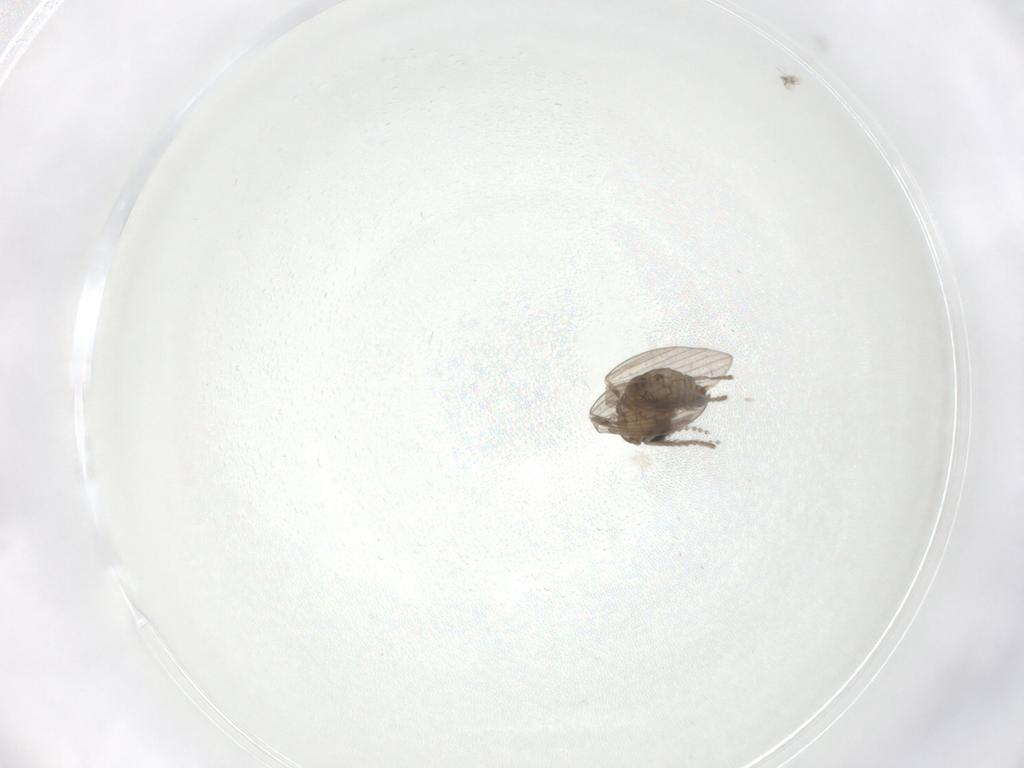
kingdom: Animalia
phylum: Arthropoda
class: Insecta
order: Diptera
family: Psychodidae
